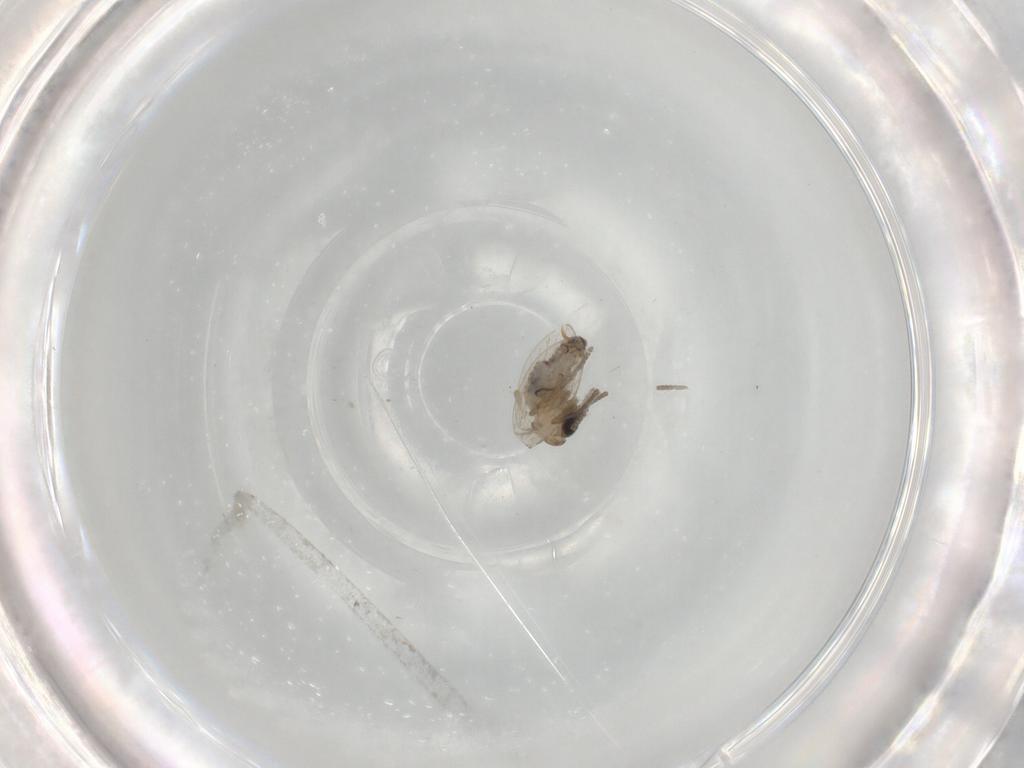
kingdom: Animalia
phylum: Arthropoda
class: Insecta
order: Diptera
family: Psychodidae
